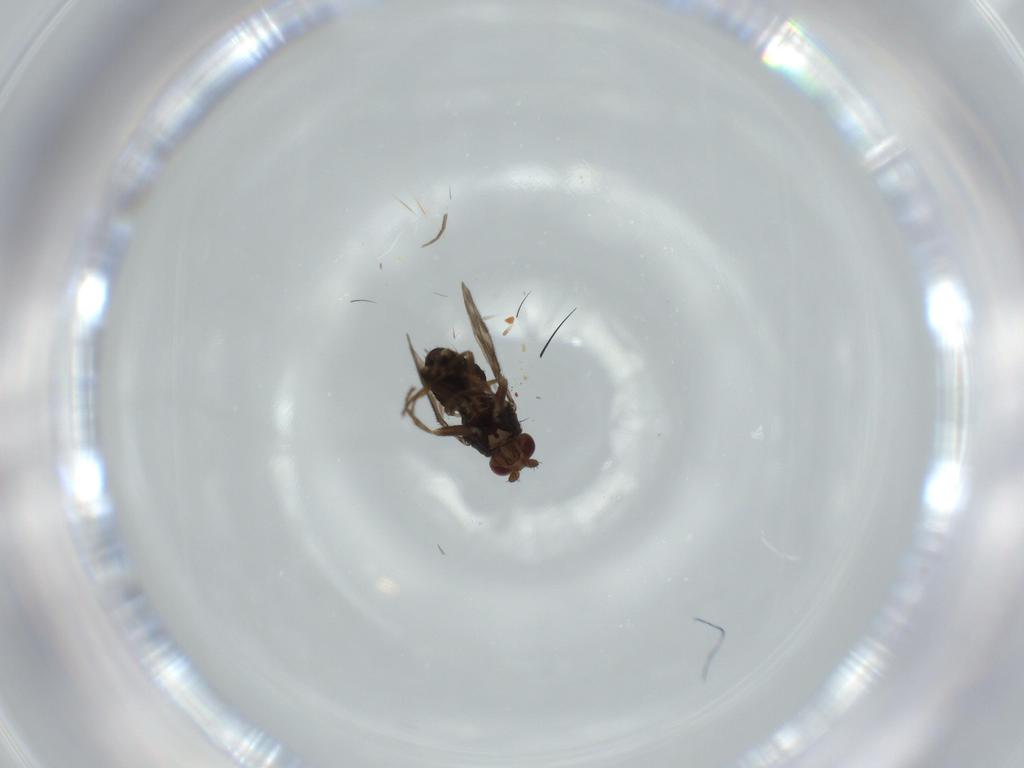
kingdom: Animalia
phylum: Arthropoda
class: Insecta
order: Diptera
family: Sphaeroceridae
